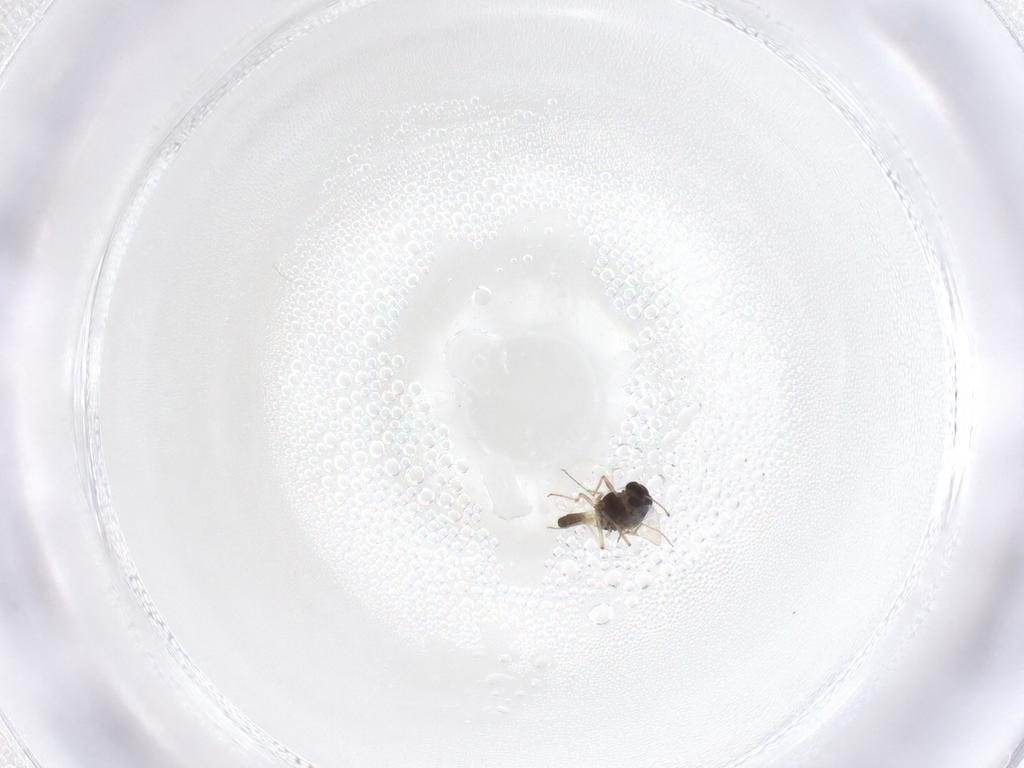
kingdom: Animalia
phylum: Arthropoda
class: Insecta
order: Diptera
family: Chironomidae
